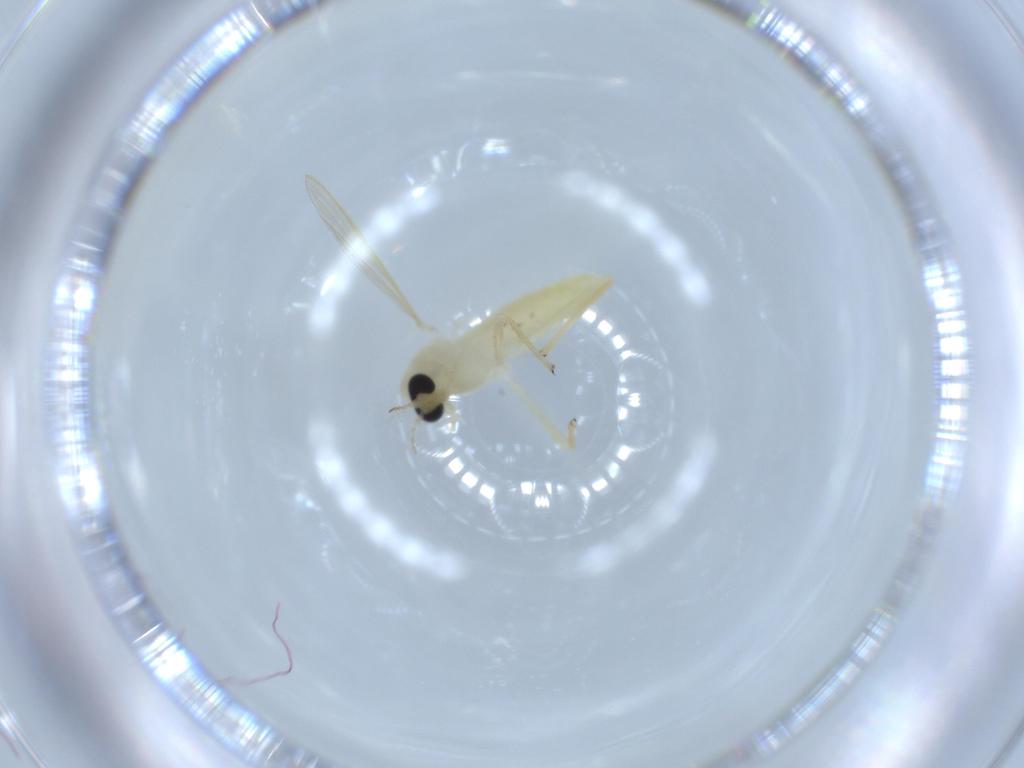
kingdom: Animalia
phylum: Arthropoda
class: Insecta
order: Diptera
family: Chironomidae
